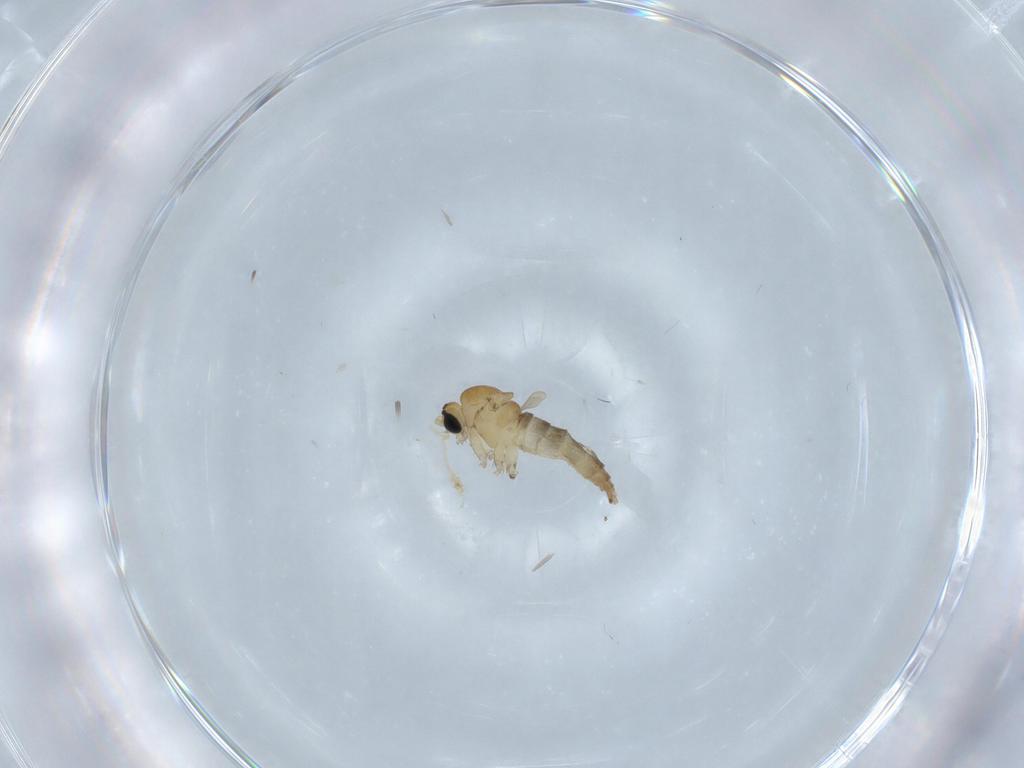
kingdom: Animalia
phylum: Arthropoda
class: Insecta
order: Diptera
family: Sciaridae
